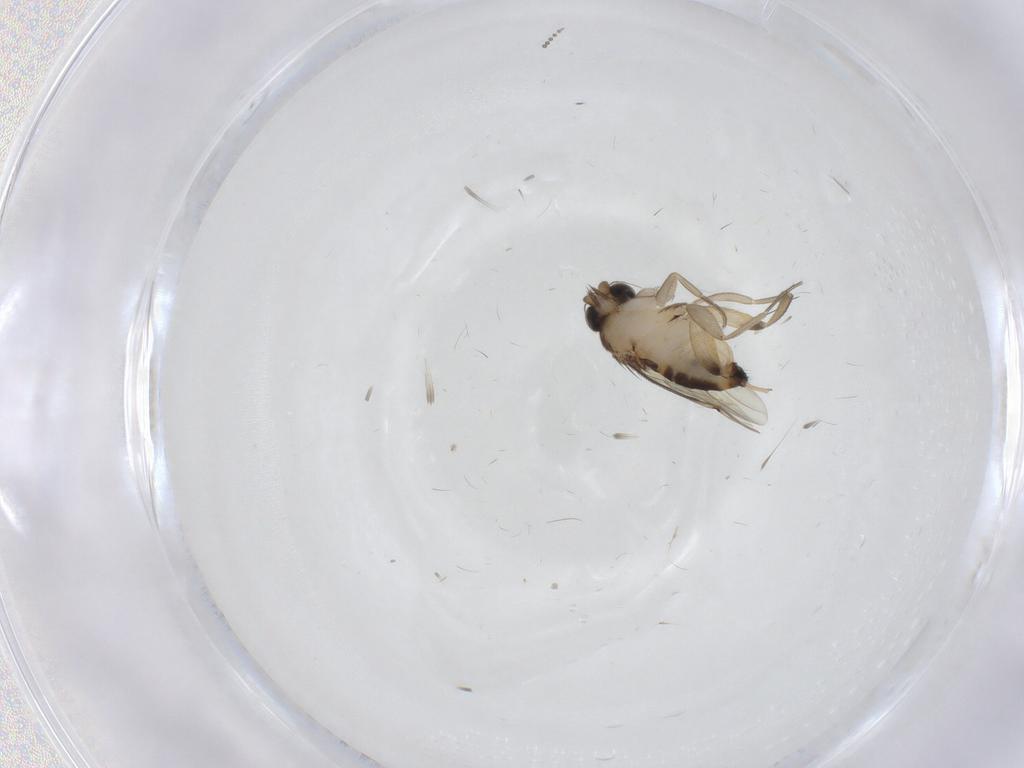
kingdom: Animalia
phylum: Arthropoda
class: Insecta
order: Diptera
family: Phoridae
